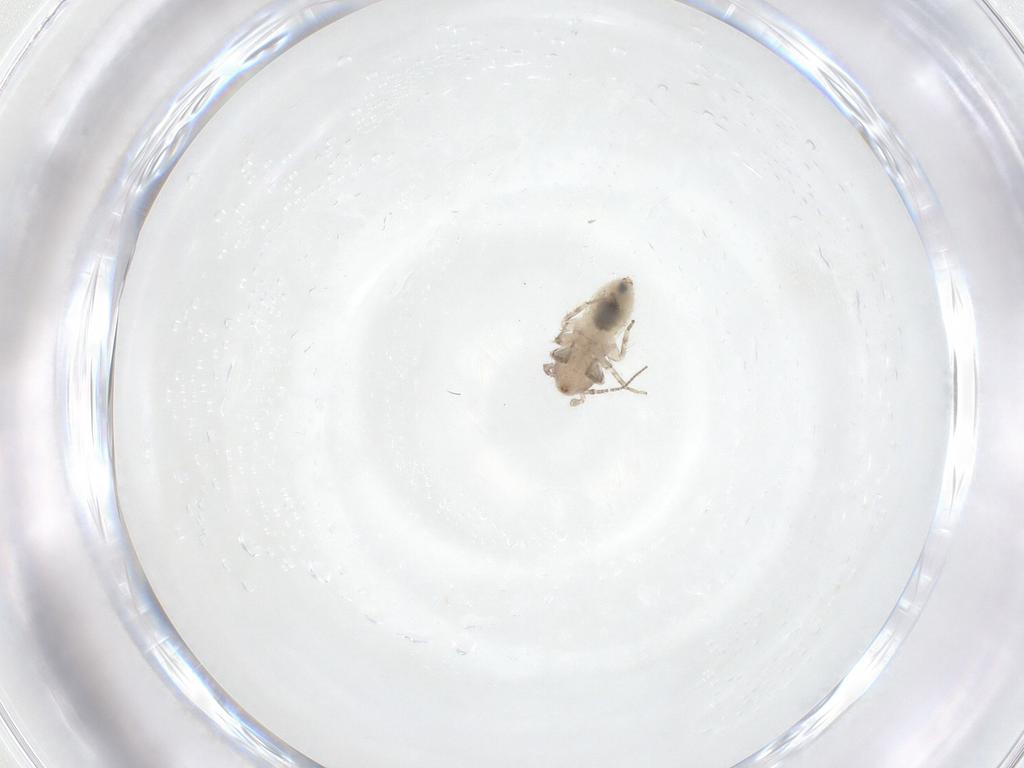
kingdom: Animalia
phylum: Arthropoda
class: Insecta
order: Psocodea
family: Lepidopsocidae
